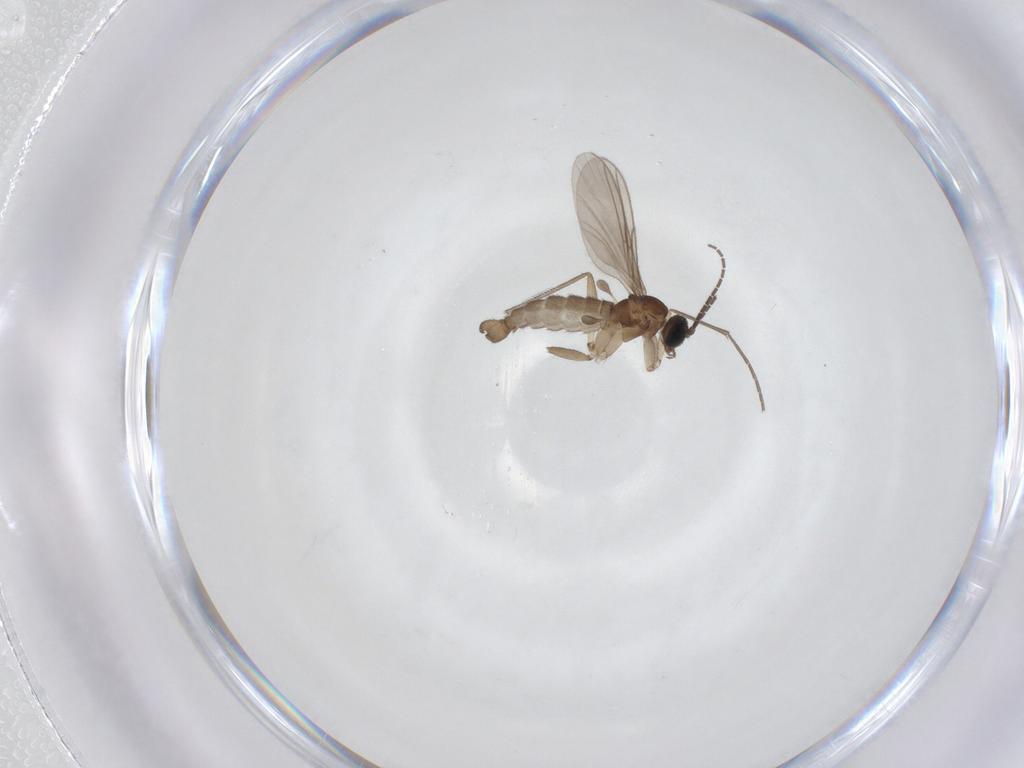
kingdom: Animalia
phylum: Arthropoda
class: Insecta
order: Diptera
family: Sciaridae
